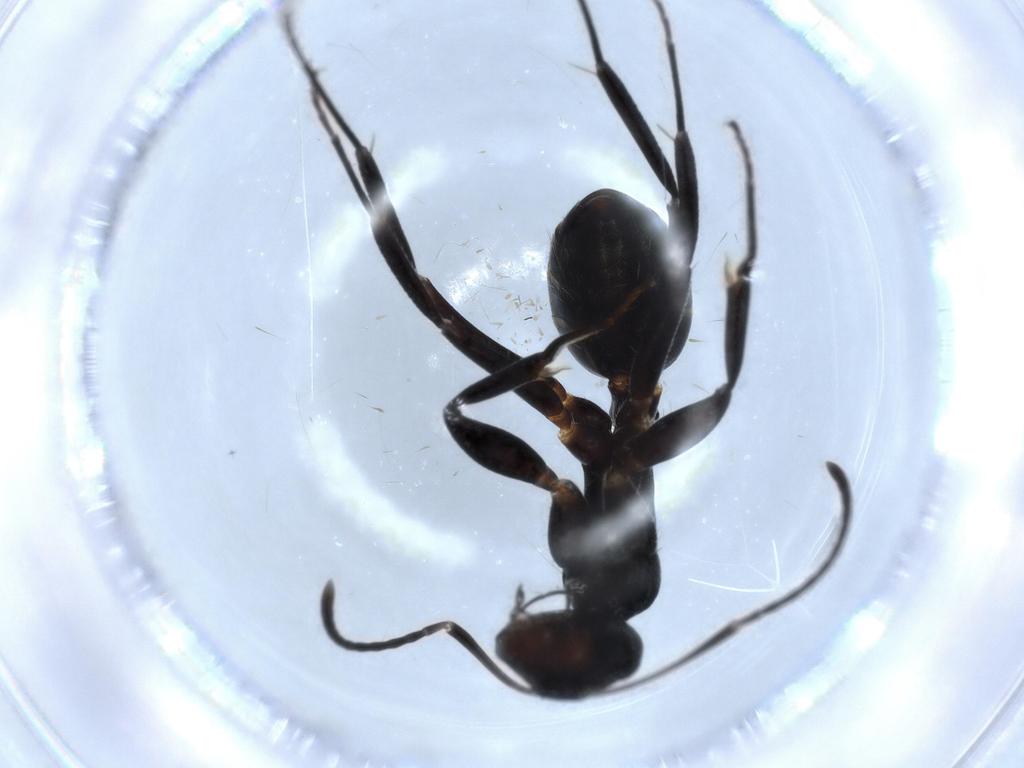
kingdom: Animalia
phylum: Arthropoda
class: Insecta
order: Hymenoptera
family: Formicidae
